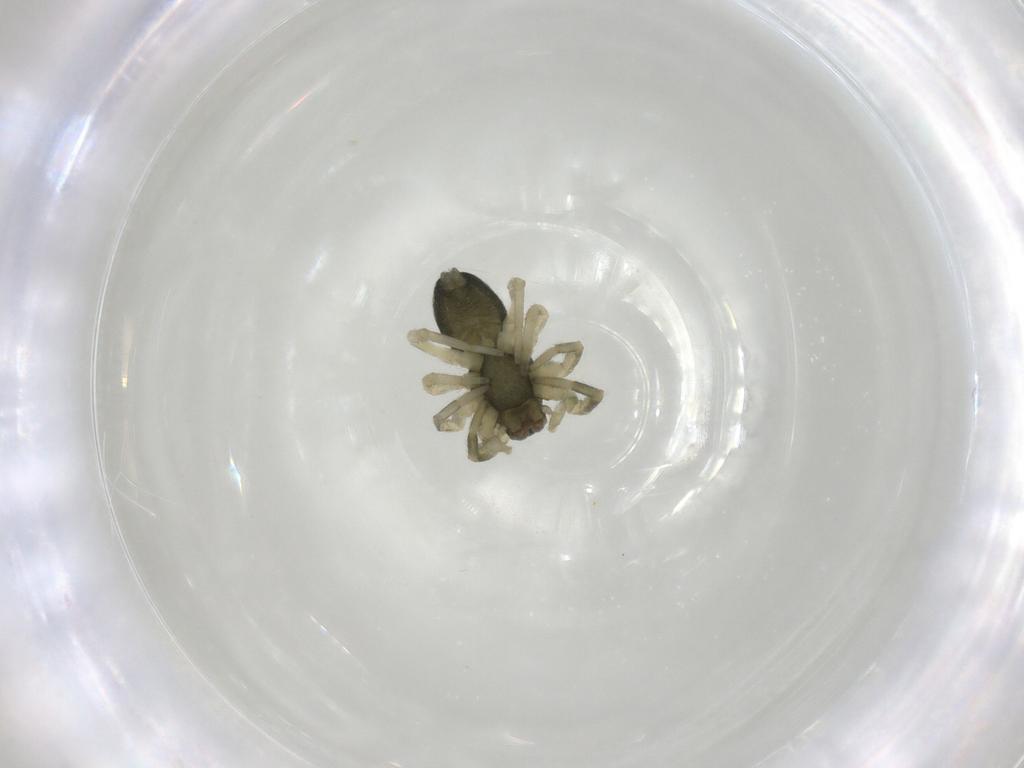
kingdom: Animalia
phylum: Arthropoda
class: Arachnida
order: Araneae
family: Trachelidae
